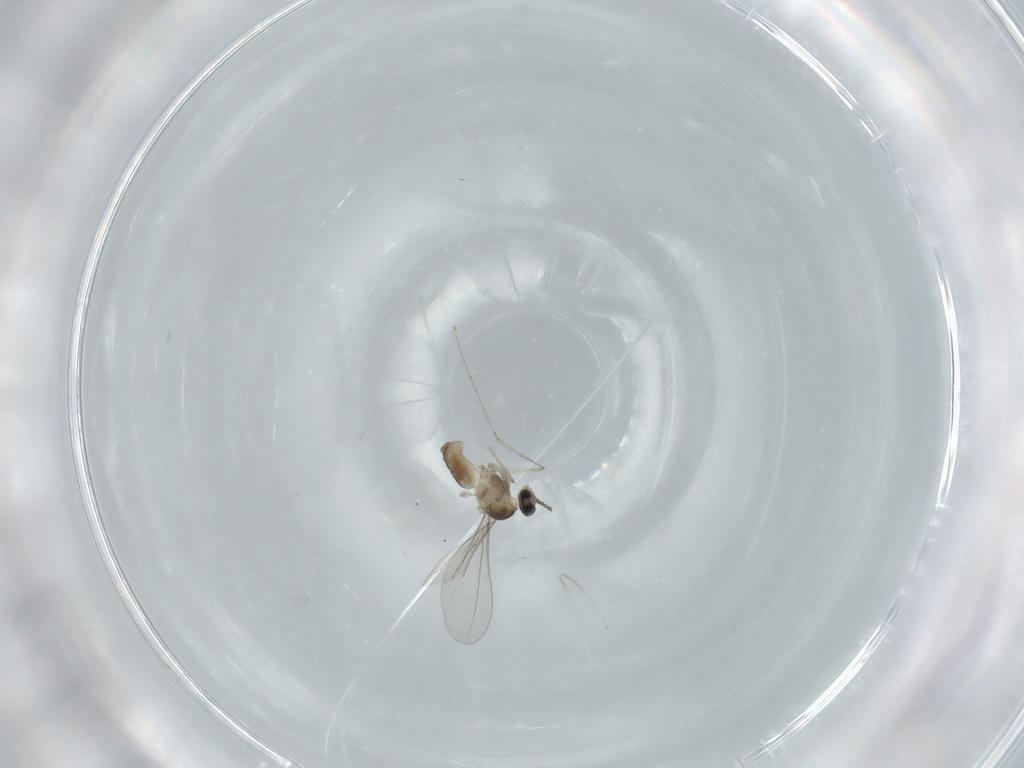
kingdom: Animalia
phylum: Arthropoda
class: Insecta
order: Diptera
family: Cecidomyiidae
